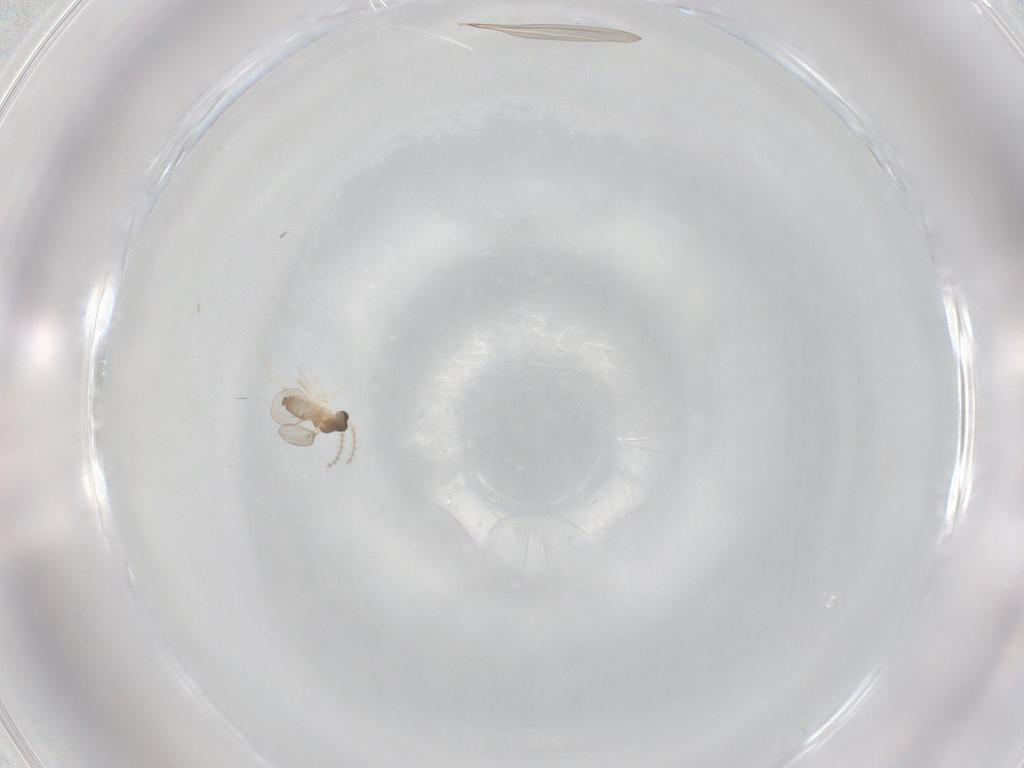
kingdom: Animalia
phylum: Arthropoda
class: Insecta
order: Diptera
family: Cecidomyiidae
